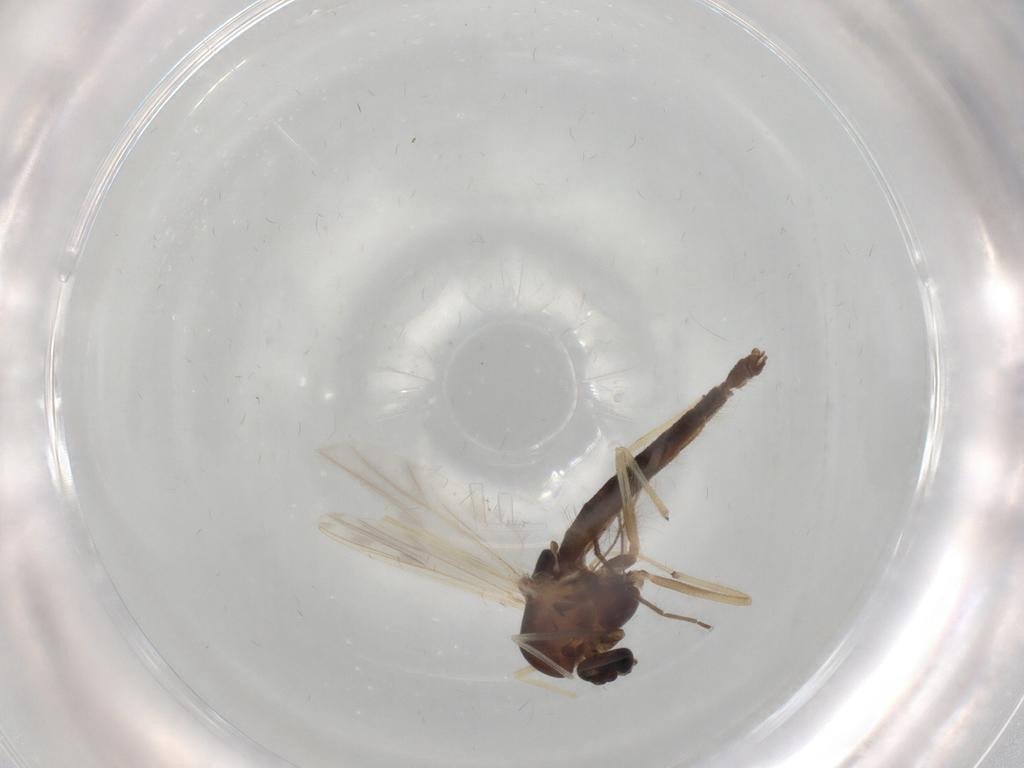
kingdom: Animalia
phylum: Arthropoda
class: Insecta
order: Diptera
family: Chironomidae
